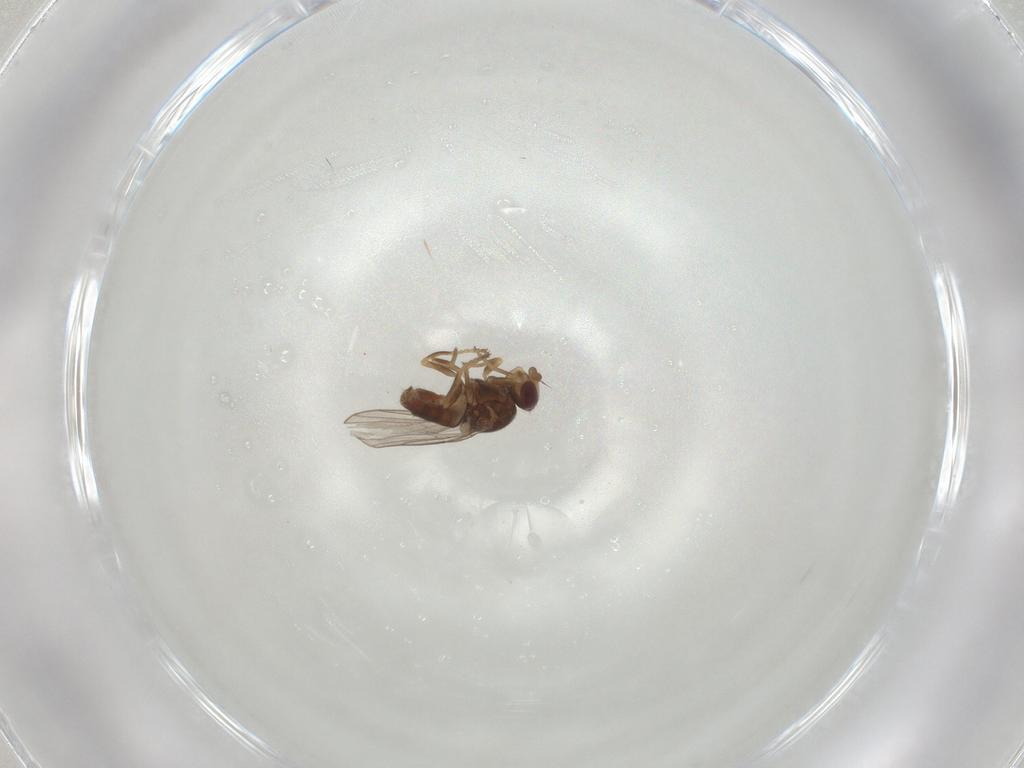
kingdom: Animalia
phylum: Arthropoda
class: Insecta
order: Diptera
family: Chloropidae
